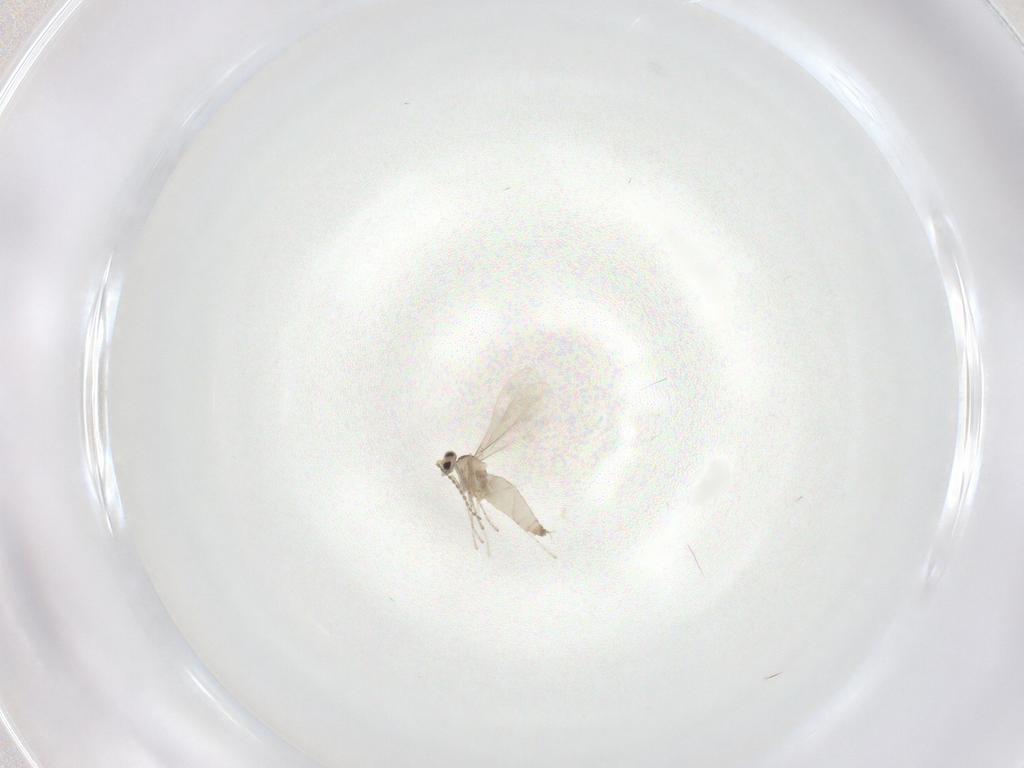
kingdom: Animalia
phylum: Arthropoda
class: Insecta
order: Diptera
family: Cecidomyiidae
